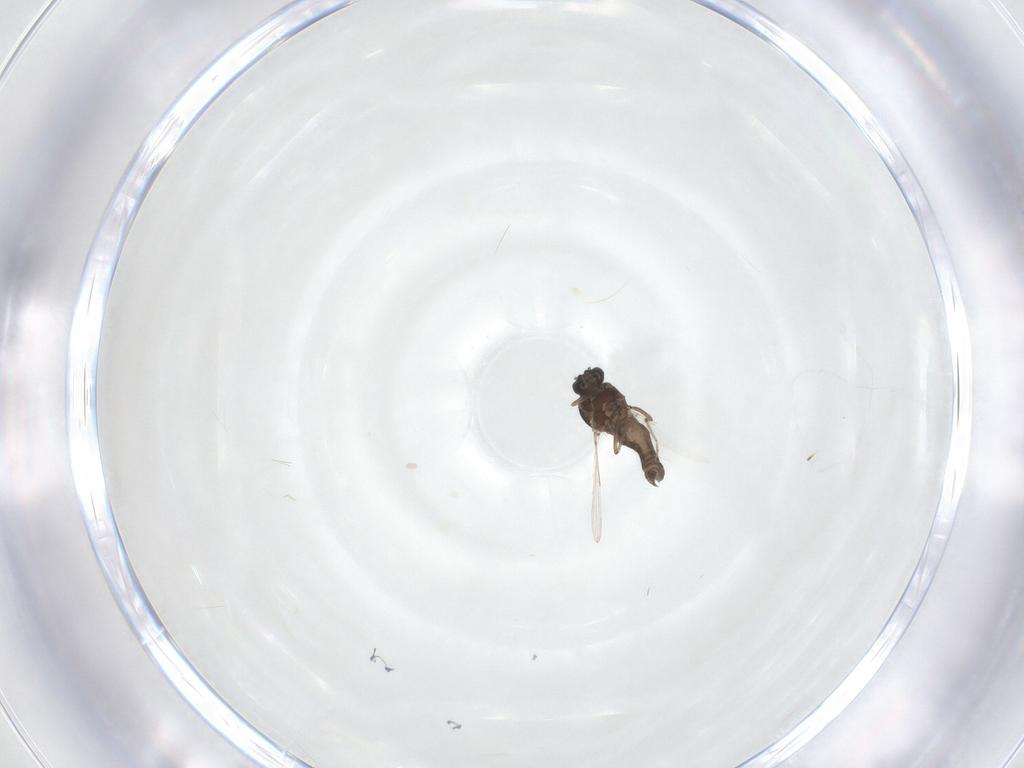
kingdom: Animalia
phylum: Arthropoda
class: Insecta
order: Diptera
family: Ceratopogonidae
